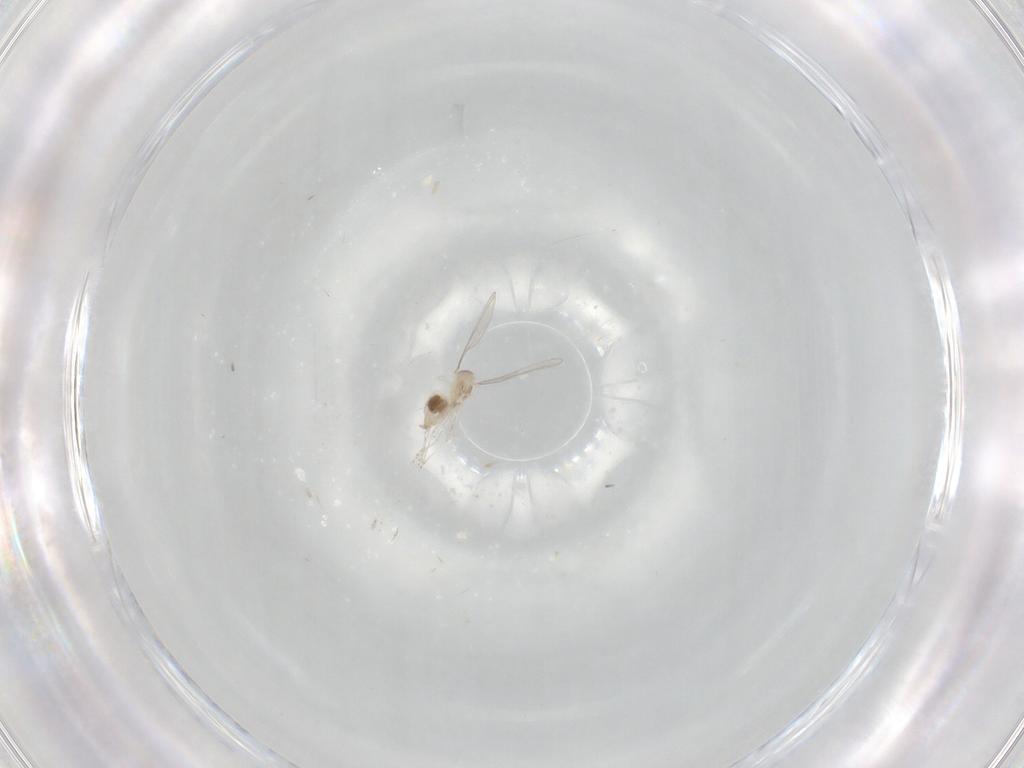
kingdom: Animalia
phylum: Arthropoda
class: Insecta
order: Diptera
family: Cecidomyiidae
